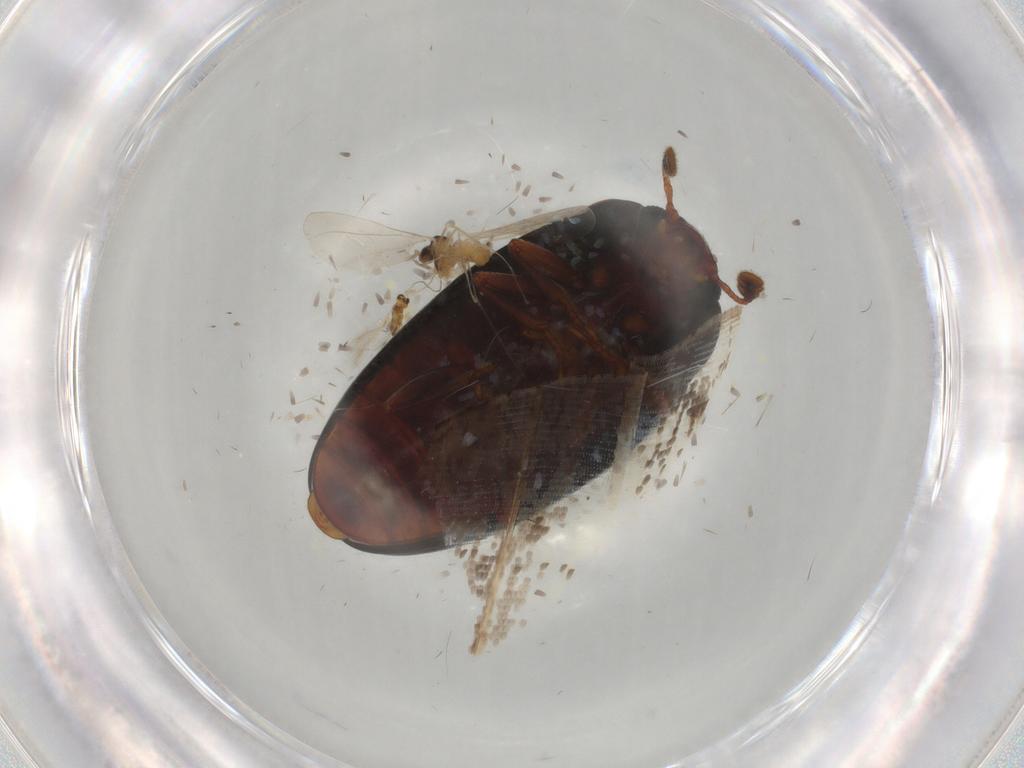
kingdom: Animalia
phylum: Arthropoda
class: Insecta
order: Coleoptera
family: Erotylidae
